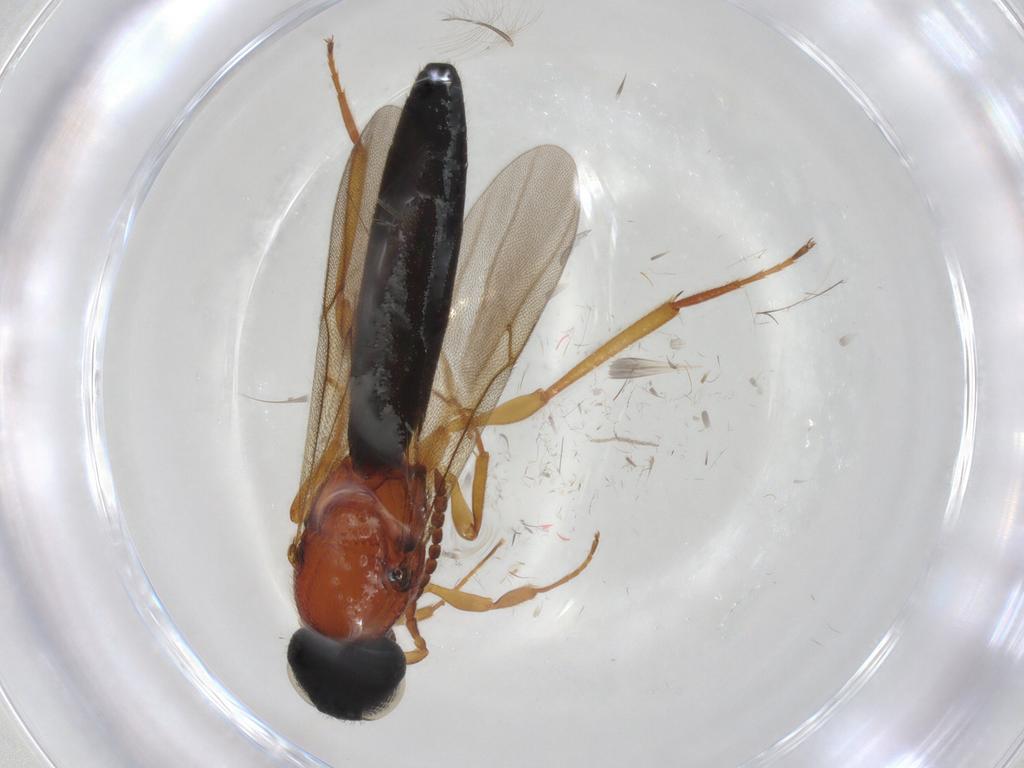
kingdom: Animalia
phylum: Arthropoda
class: Insecta
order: Hymenoptera
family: Scelionidae
